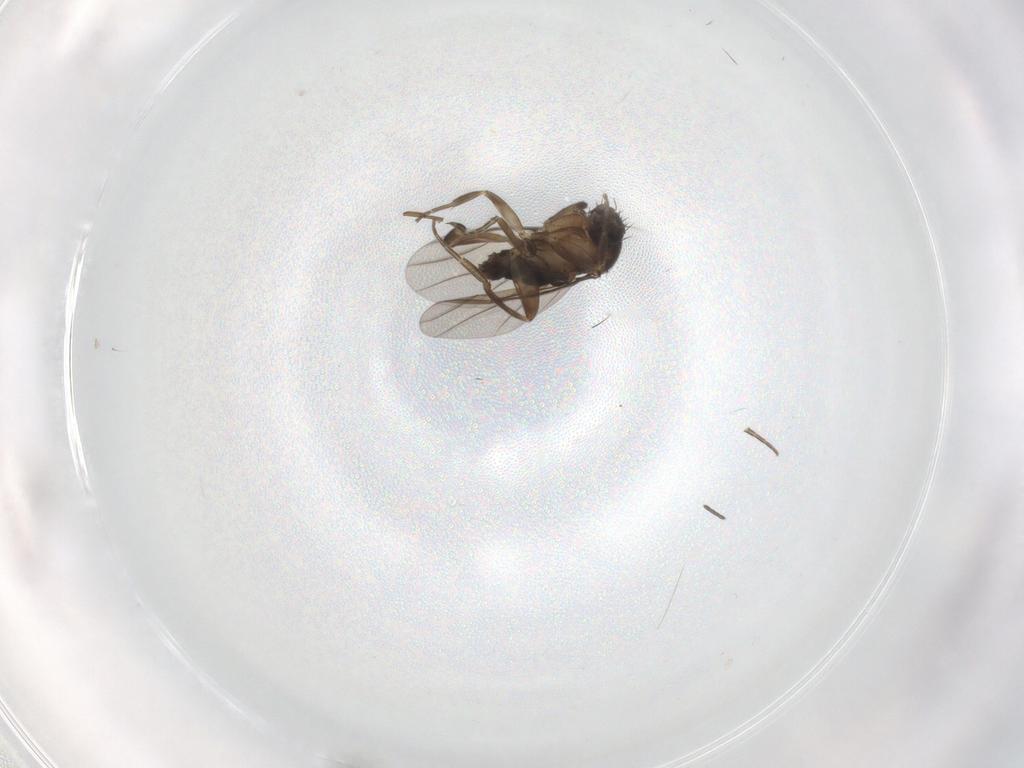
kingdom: Animalia
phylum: Arthropoda
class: Insecta
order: Diptera
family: Phoridae
